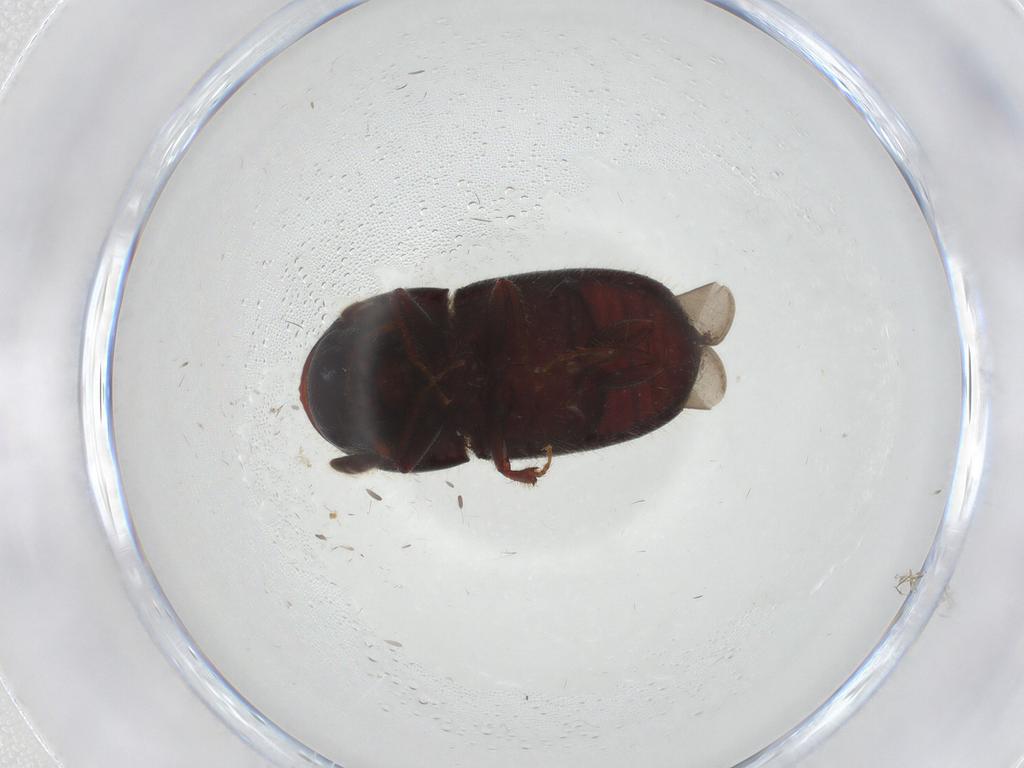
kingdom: Animalia
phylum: Arthropoda
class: Insecta
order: Coleoptera
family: Curculionidae
